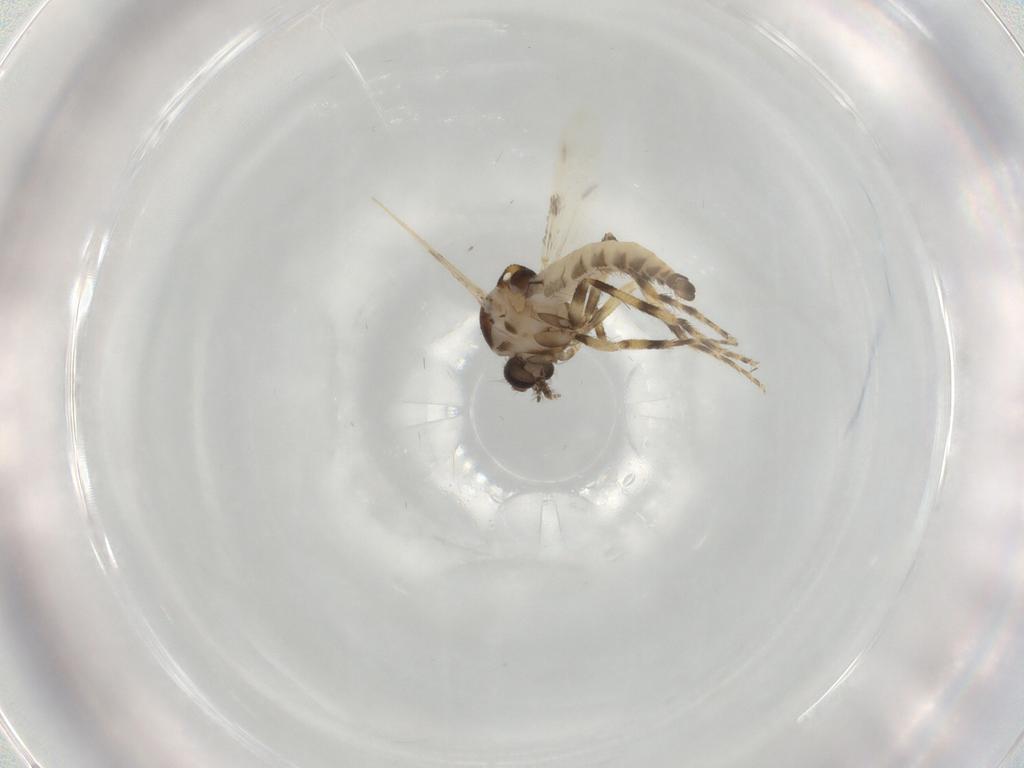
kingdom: Animalia
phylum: Arthropoda
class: Insecta
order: Diptera
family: Ceratopogonidae
